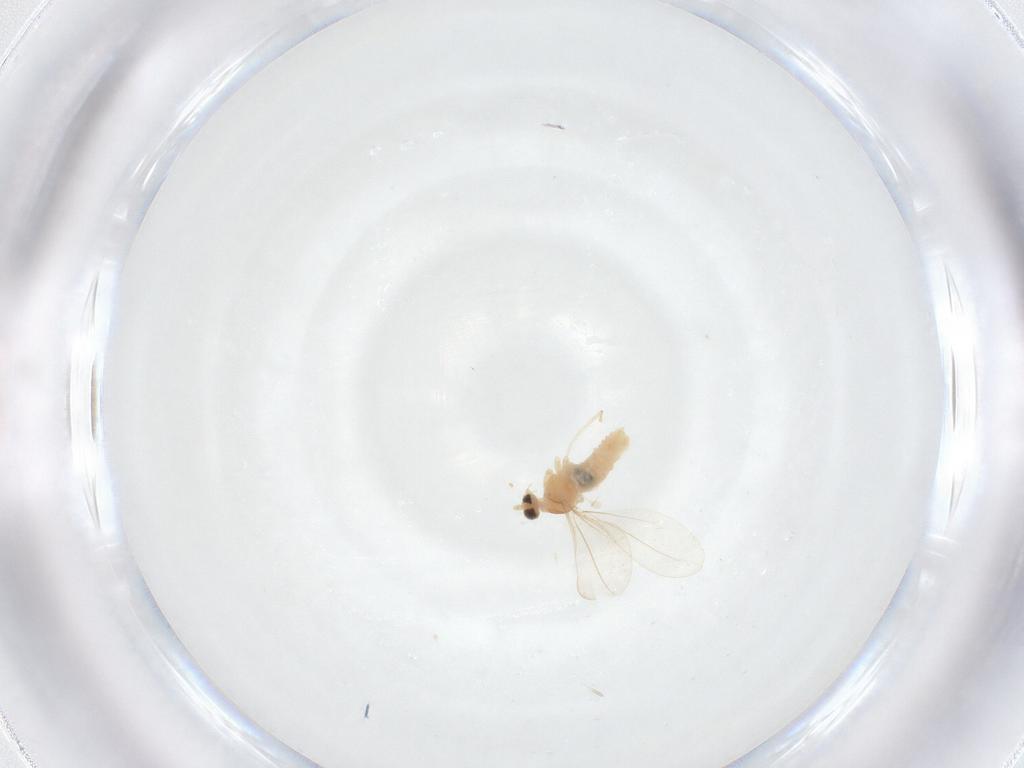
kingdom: Animalia
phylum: Arthropoda
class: Insecta
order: Diptera
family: Cecidomyiidae
